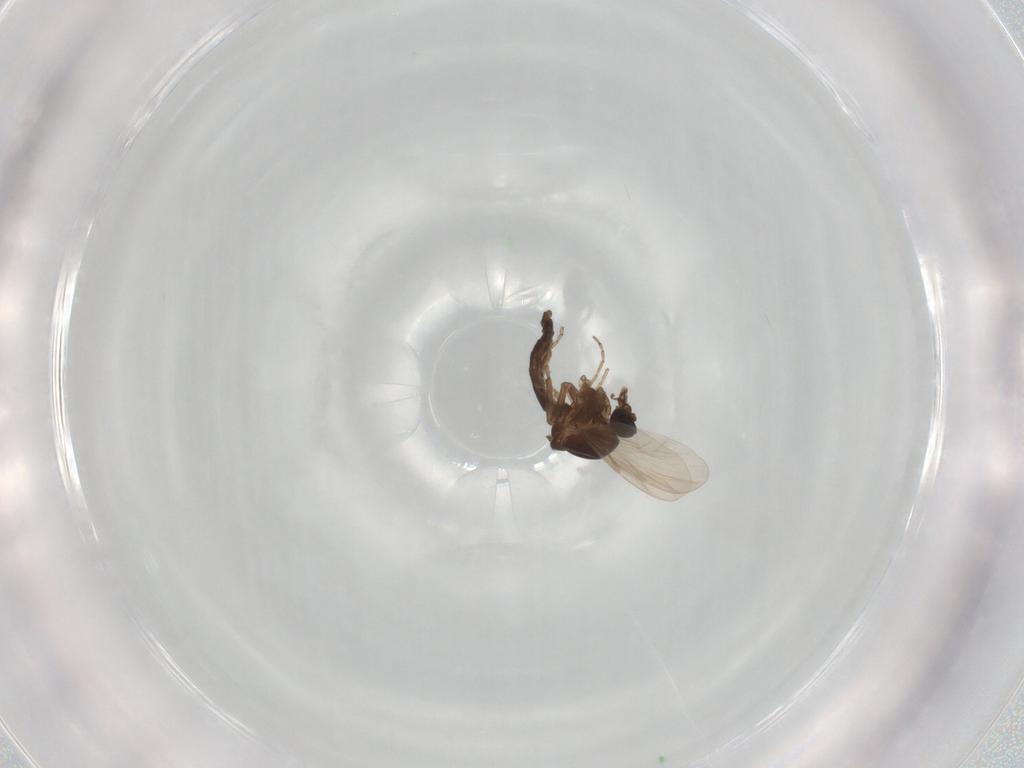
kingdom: Animalia
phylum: Arthropoda
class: Insecta
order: Diptera
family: Ceratopogonidae
